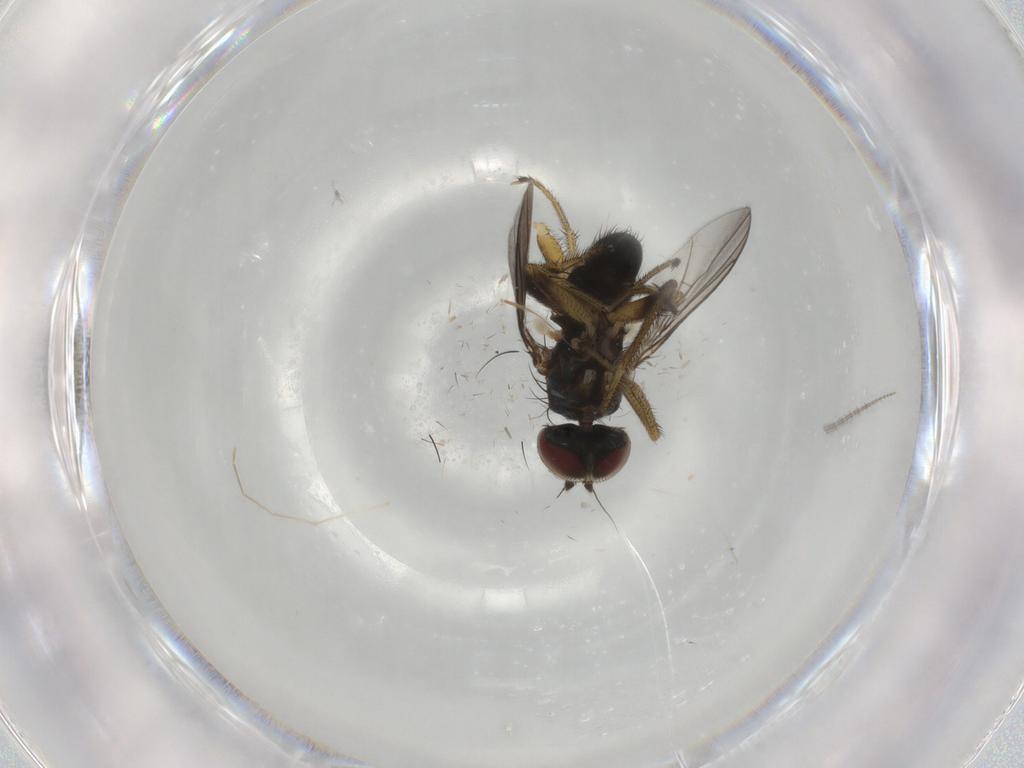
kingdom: Animalia
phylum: Arthropoda
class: Insecta
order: Diptera
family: Dolichopodidae
